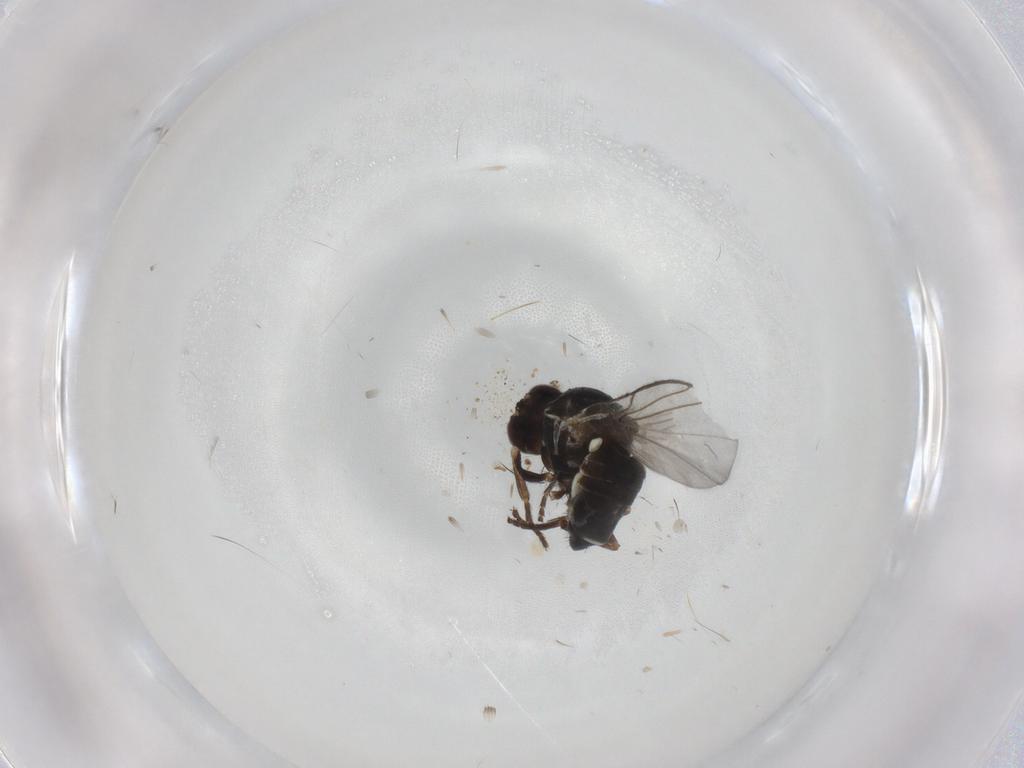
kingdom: Animalia
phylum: Arthropoda
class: Insecta
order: Diptera
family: Agromyzidae
